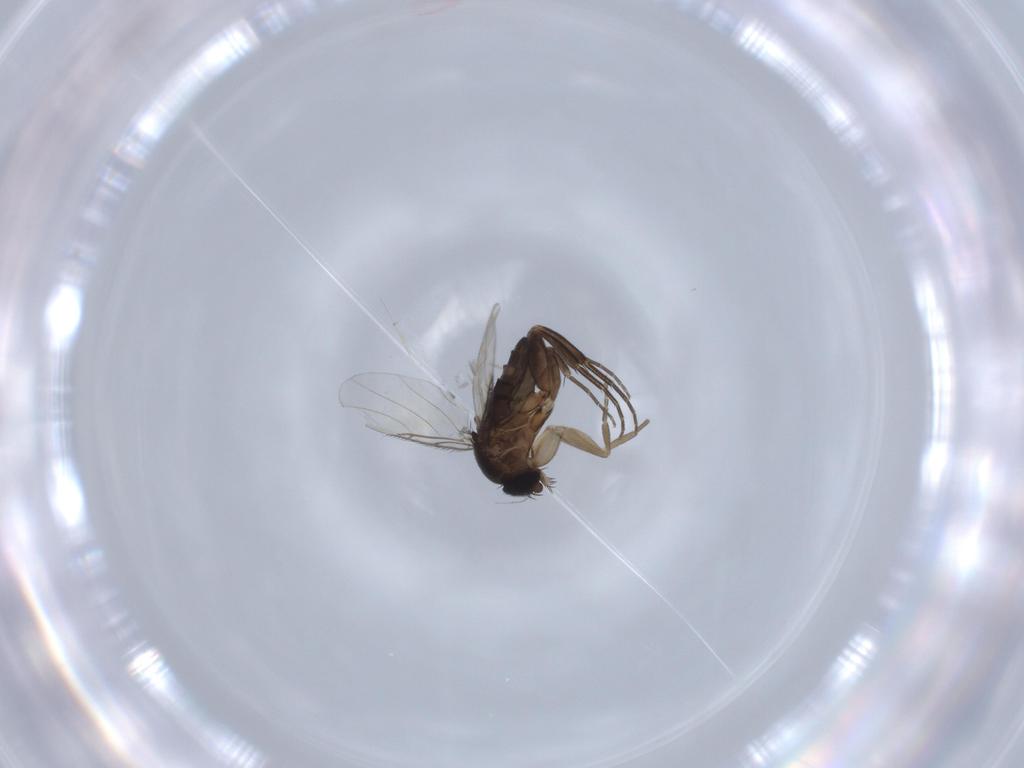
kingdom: Animalia
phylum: Arthropoda
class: Insecta
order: Diptera
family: Phoridae
